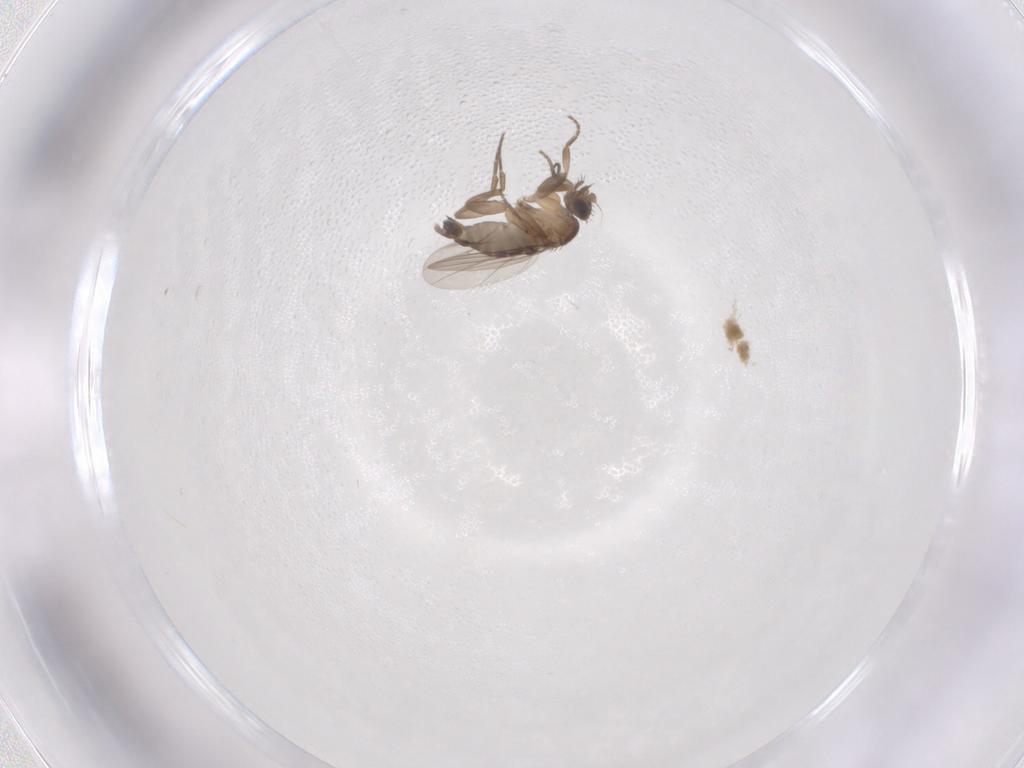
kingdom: Animalia
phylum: Arthropoda
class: Insecta
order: Diptera
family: Phoridae
